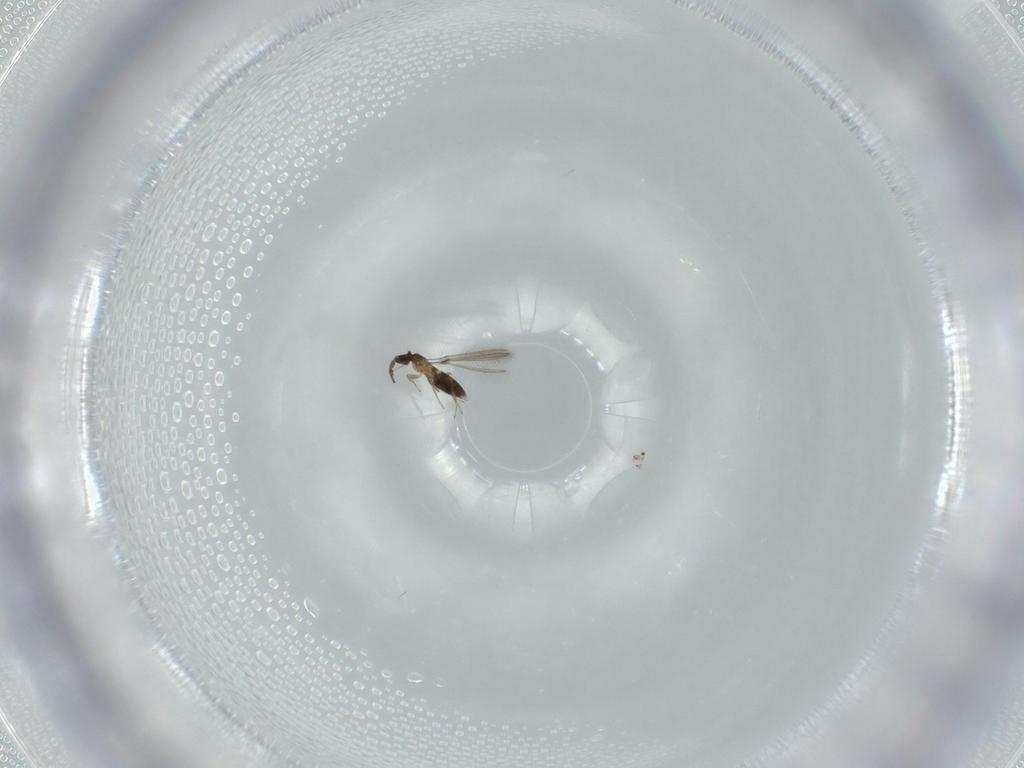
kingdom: Animalia
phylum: Arthropoda
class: Insecta
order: Hymenoptera
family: Mymaridae
